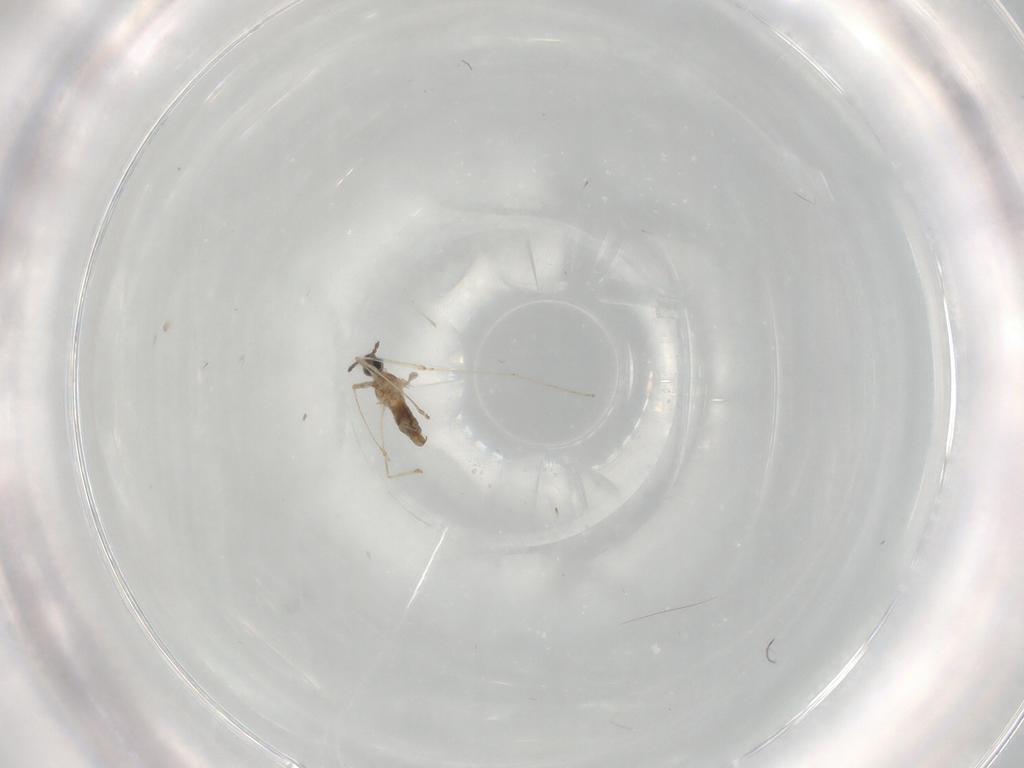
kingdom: Animalia
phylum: Arthropoda
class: Insecta
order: Diptera
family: Cecidomyiidae
